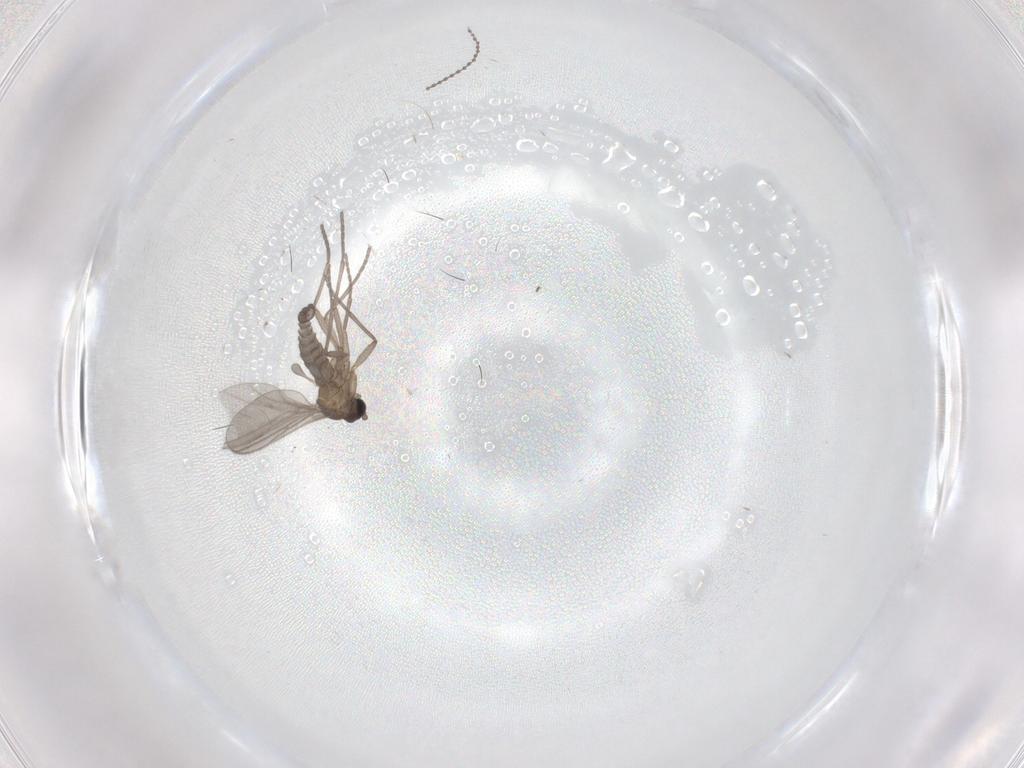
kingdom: Animalia
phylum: Arthropoda
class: Insecta
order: Diptera
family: Sciaridae
